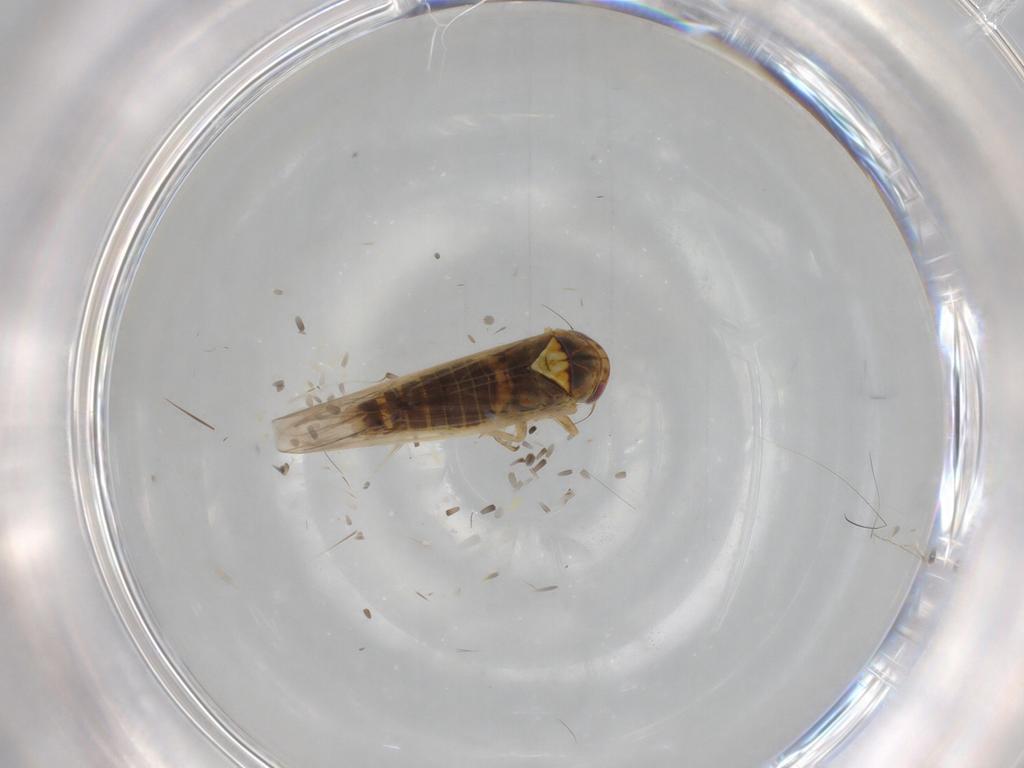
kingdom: Animalia
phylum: Arthropoda
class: Insecta
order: Hemiptera
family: Cicadellidae
